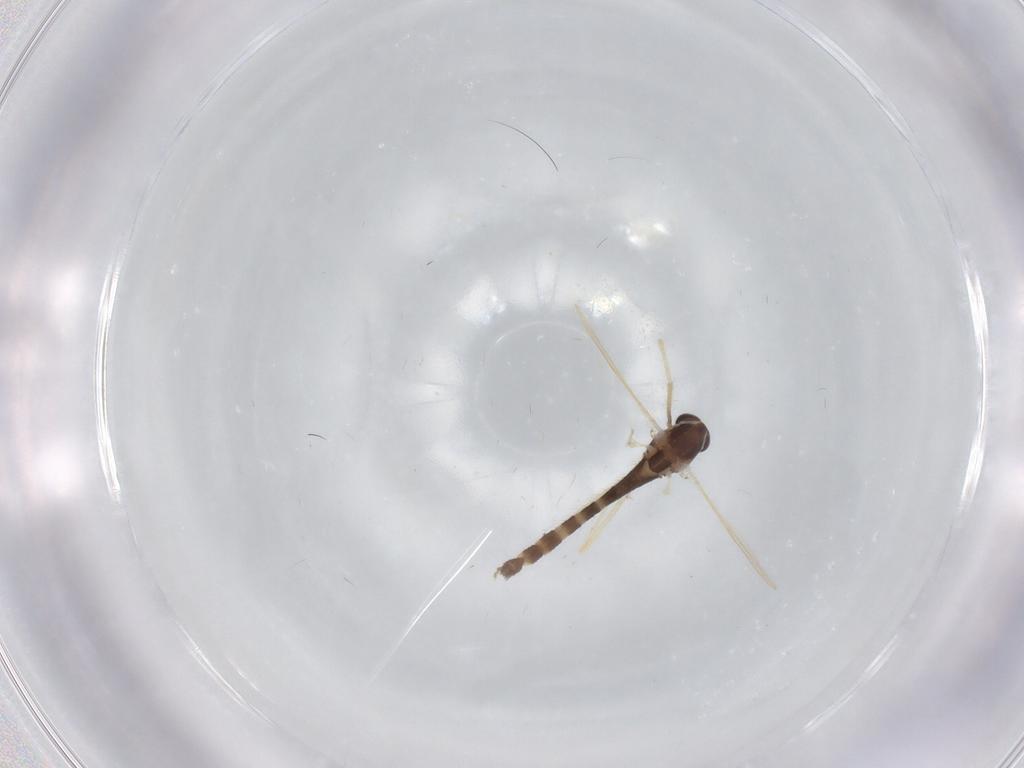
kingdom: Animalia
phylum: Arthropoda
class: Insecta
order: Diptera
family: Chironomidae
